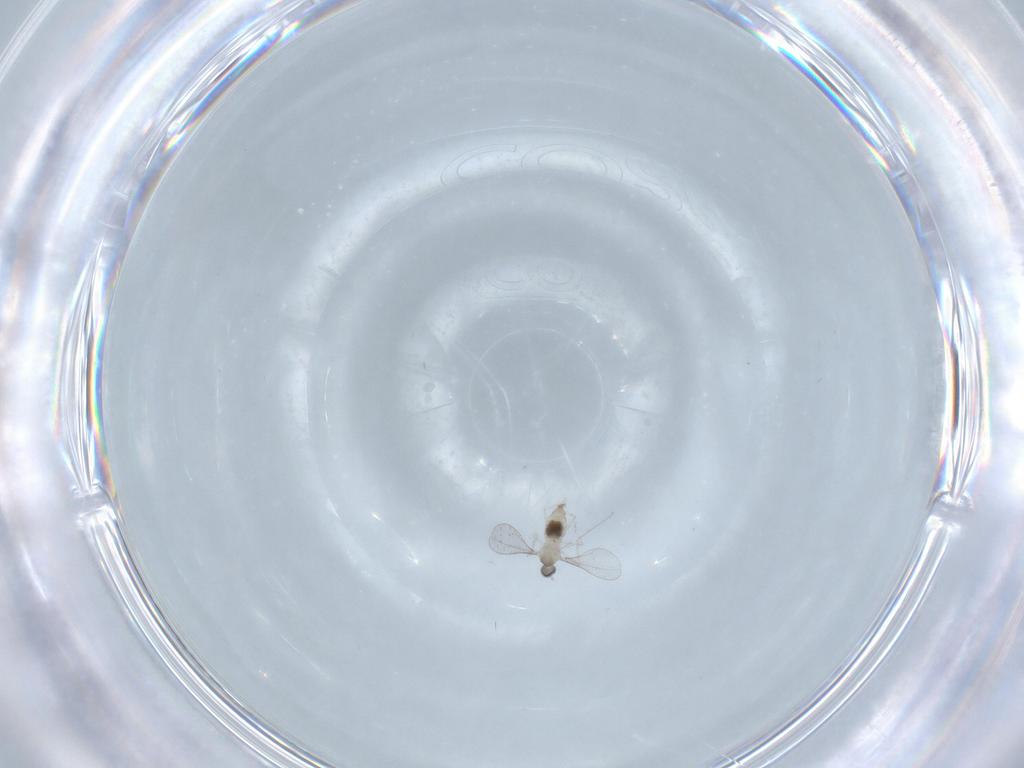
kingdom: Animalia
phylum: Arthropoda
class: Insecta
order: Diptera
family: Cecidomyiidae
